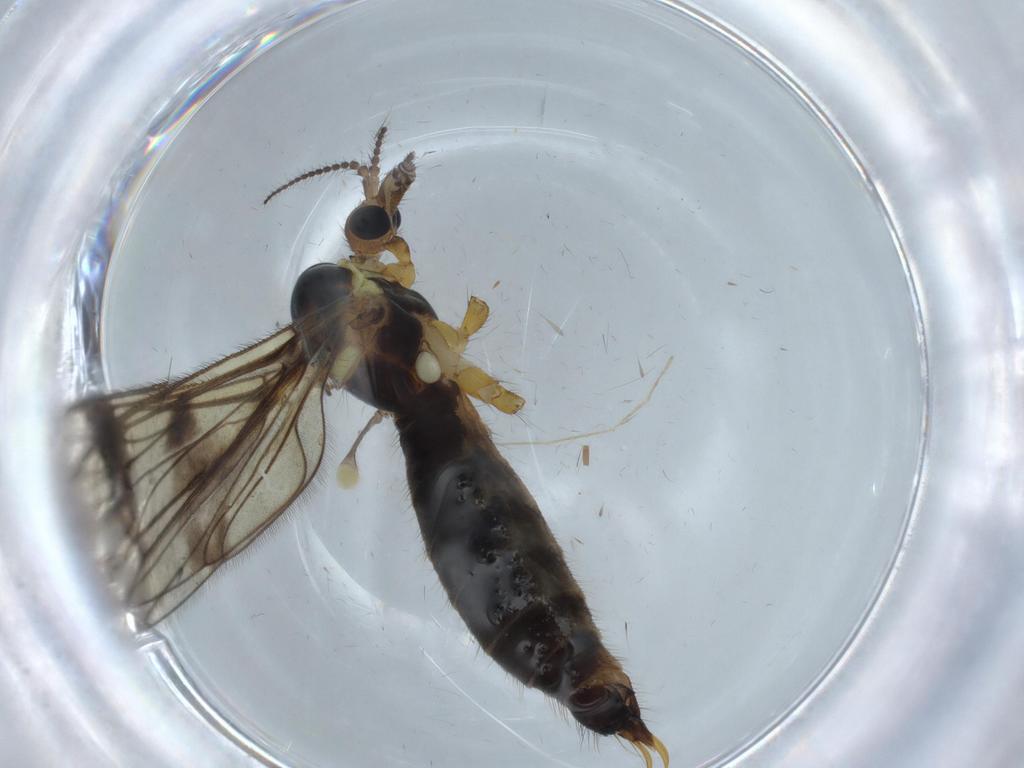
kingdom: Animalia
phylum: Arthropoda
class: Insecta
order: Diptera
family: Limoniidae
